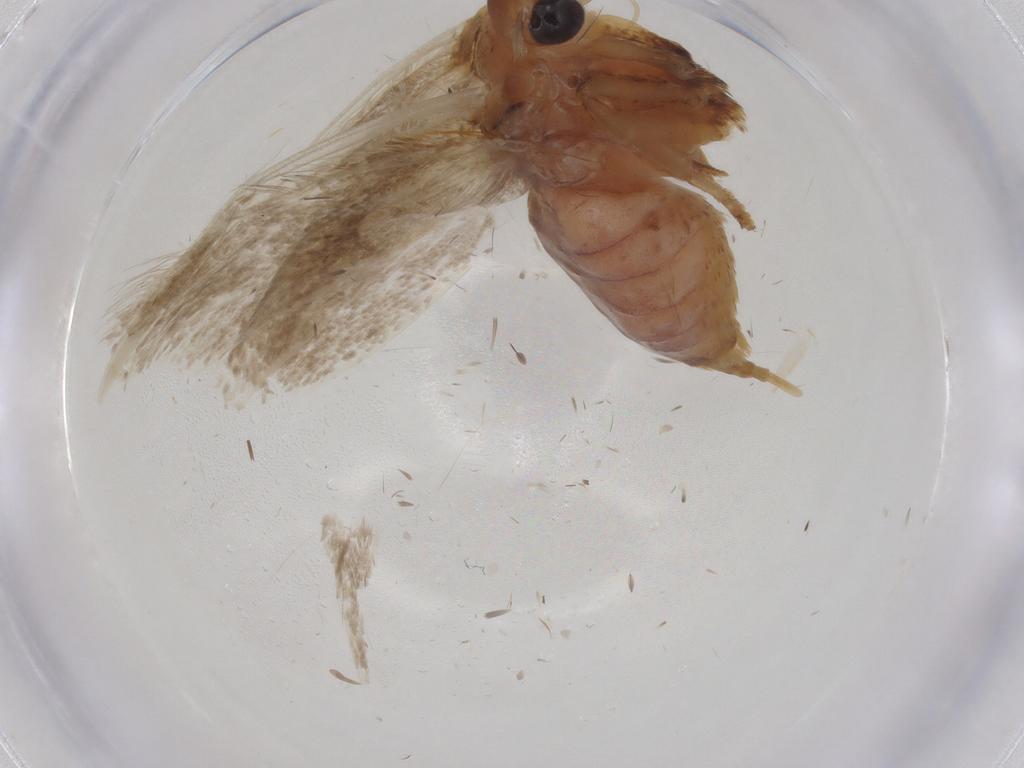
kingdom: Animalia
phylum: Arthropoda
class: Insecta
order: Lepidoptera
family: Blastobasidae
